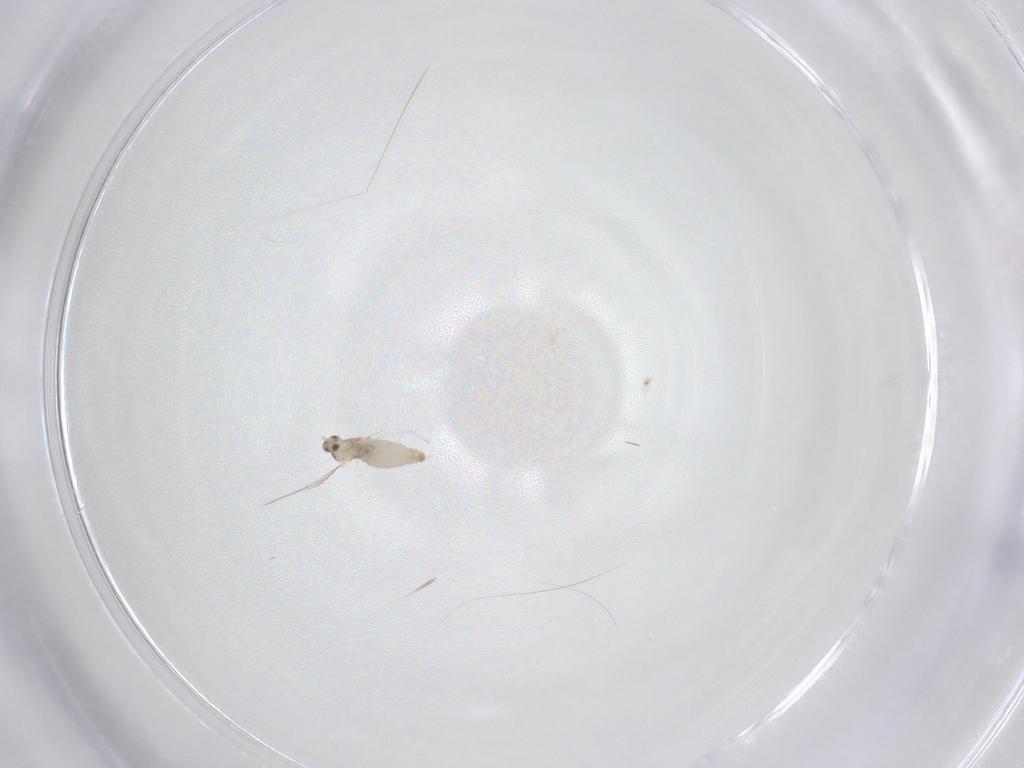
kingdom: Animalia
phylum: Arthropoda
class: Insecta
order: Diptera
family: Cecidomyiidae
